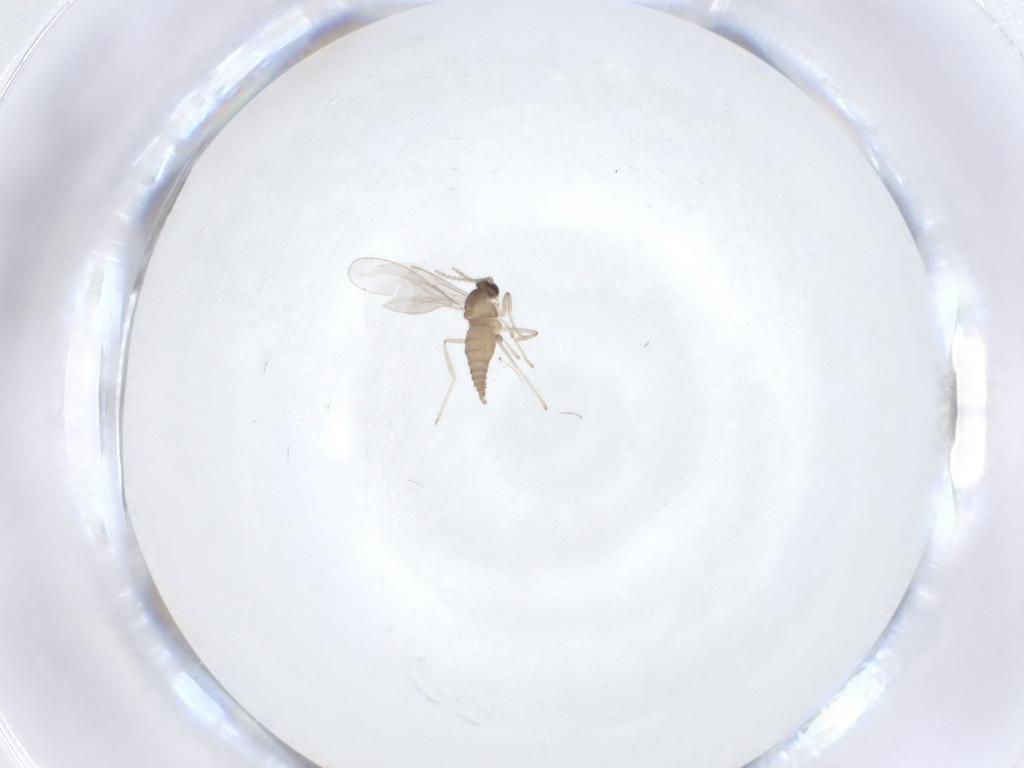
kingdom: Animalia
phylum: Arthropoda
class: Insecta
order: Diptera
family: Cecidomyiidae
